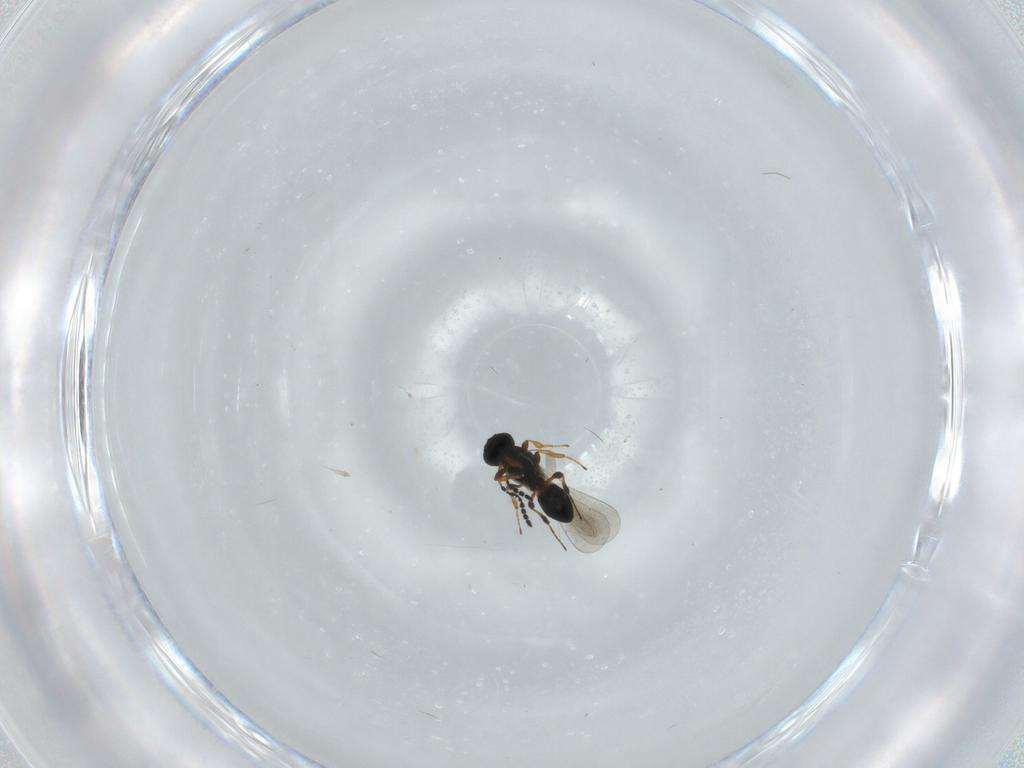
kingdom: Animalia
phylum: Arthropoda
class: Insecta
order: Hymenoptera
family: Platygastridae
